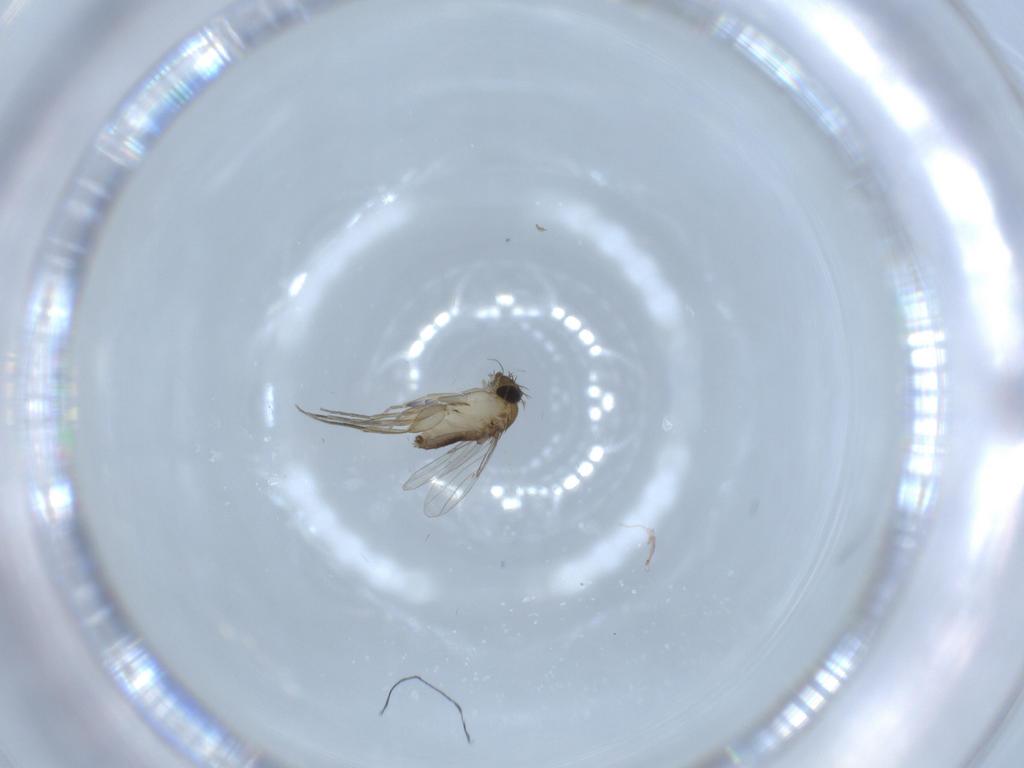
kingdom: Animalia
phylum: Arthropoda
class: Insecta
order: Diptera
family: Phoridae
